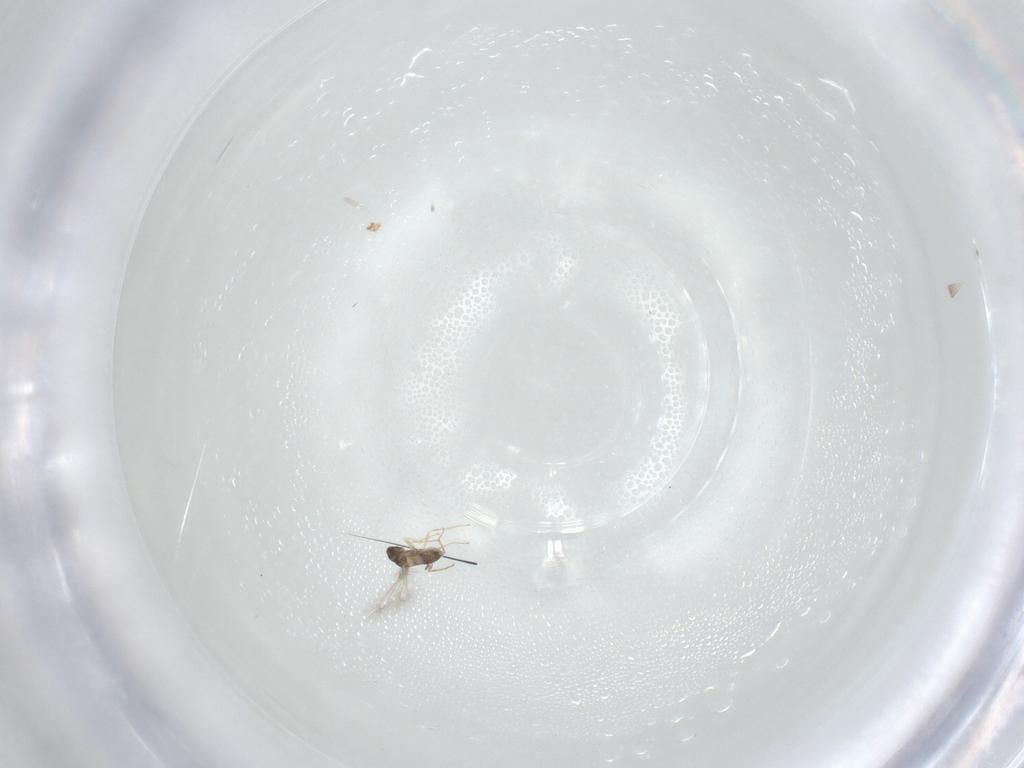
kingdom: Animalia
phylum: Arthropoda
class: Insecta
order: Hymenoptera
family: Mymaridae
